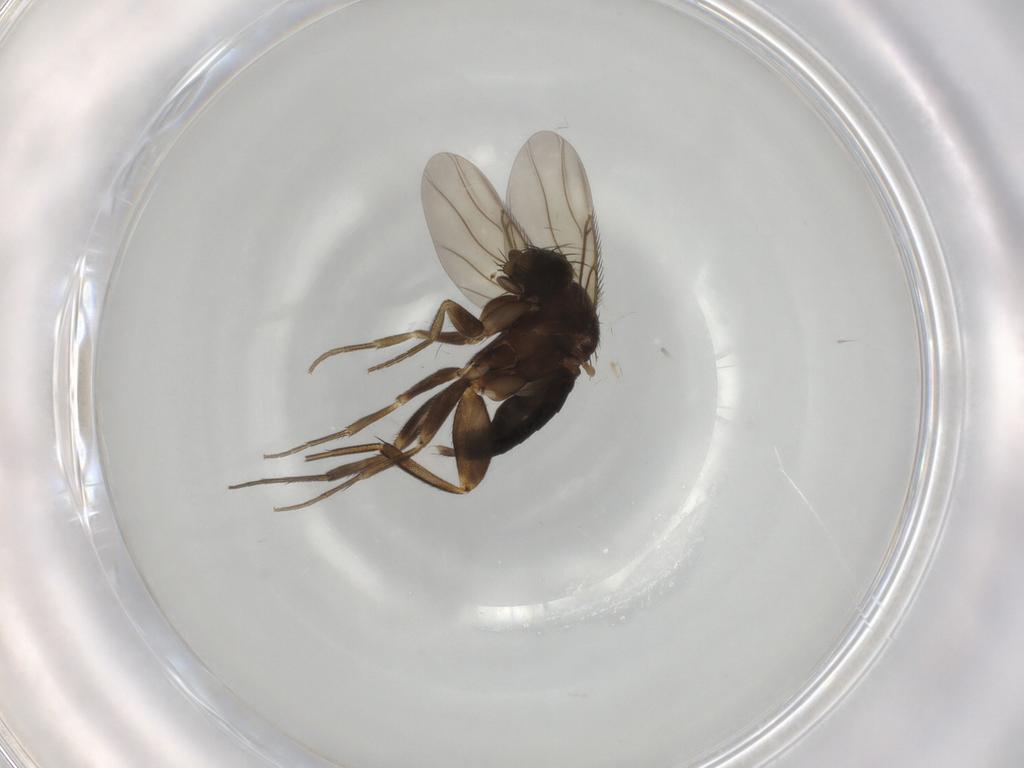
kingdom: Animalia
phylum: Arthropoda
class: Insecta
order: Diptera
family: Phoridae
